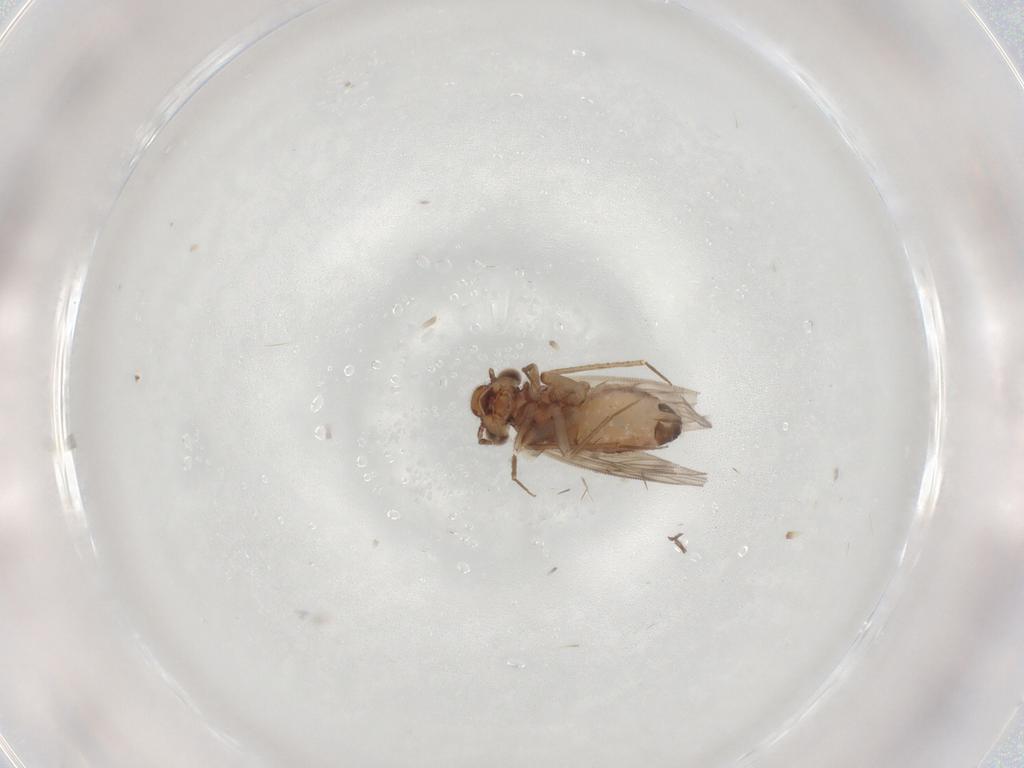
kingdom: Animalia
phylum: Arthropoda
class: Insecta
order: Psocodea
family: Lepidopsocidae
